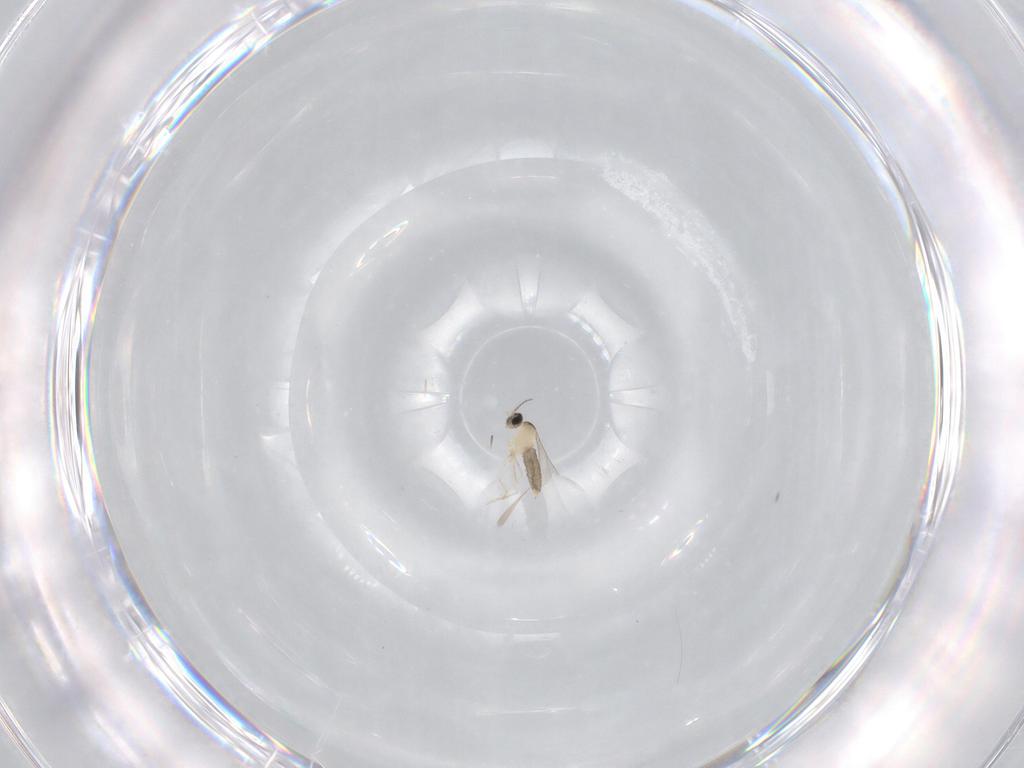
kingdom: Animalia
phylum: Arthropoda
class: Insecta
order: Diptera
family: Cecidomyiidae
